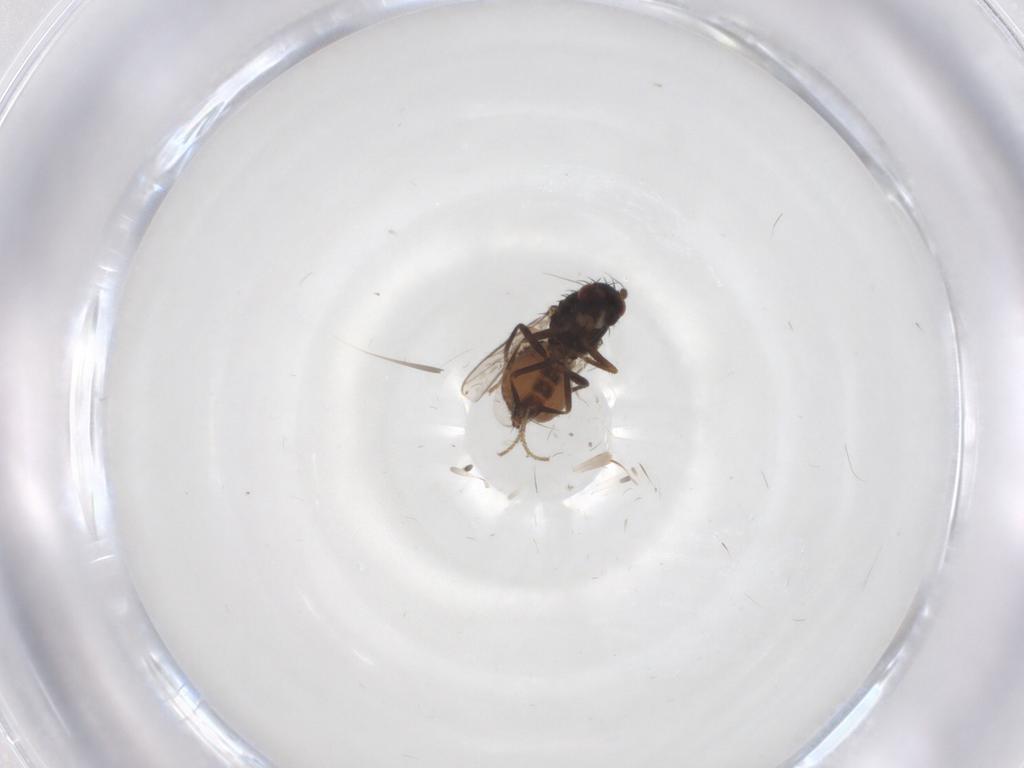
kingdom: Animalia
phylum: Arthropoda
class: Insecta
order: Diptera
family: Sphaeroceridae
